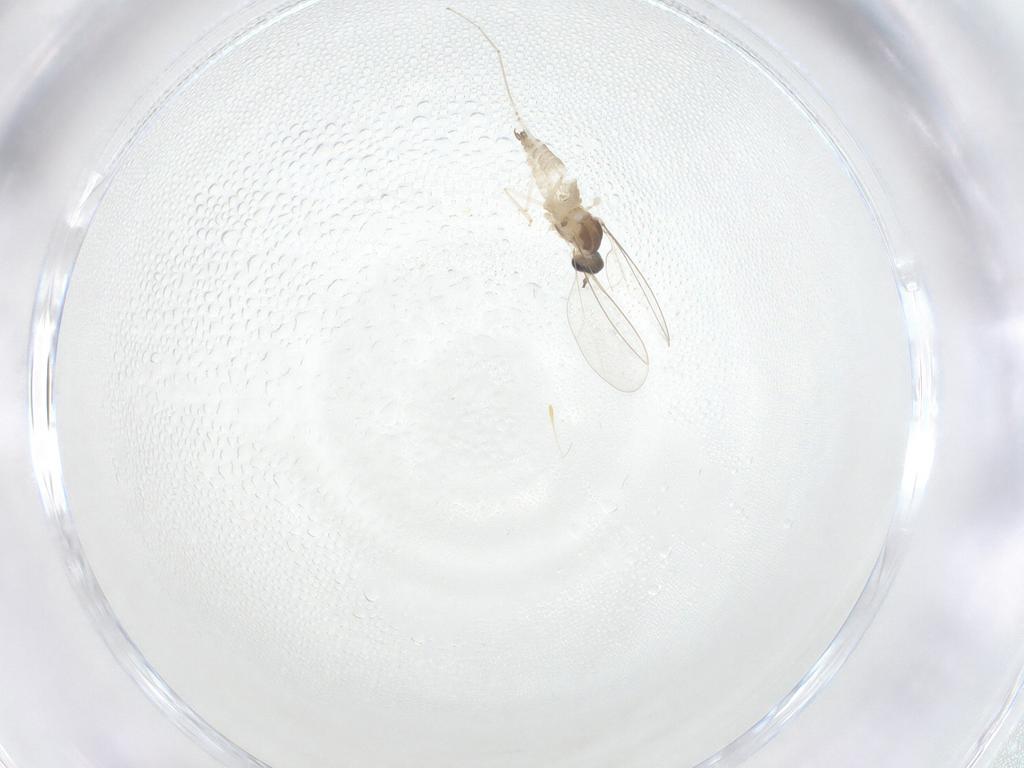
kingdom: Animalia
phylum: Arthropoda
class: Insecta
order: Diptera
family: Cecidomyiidae
